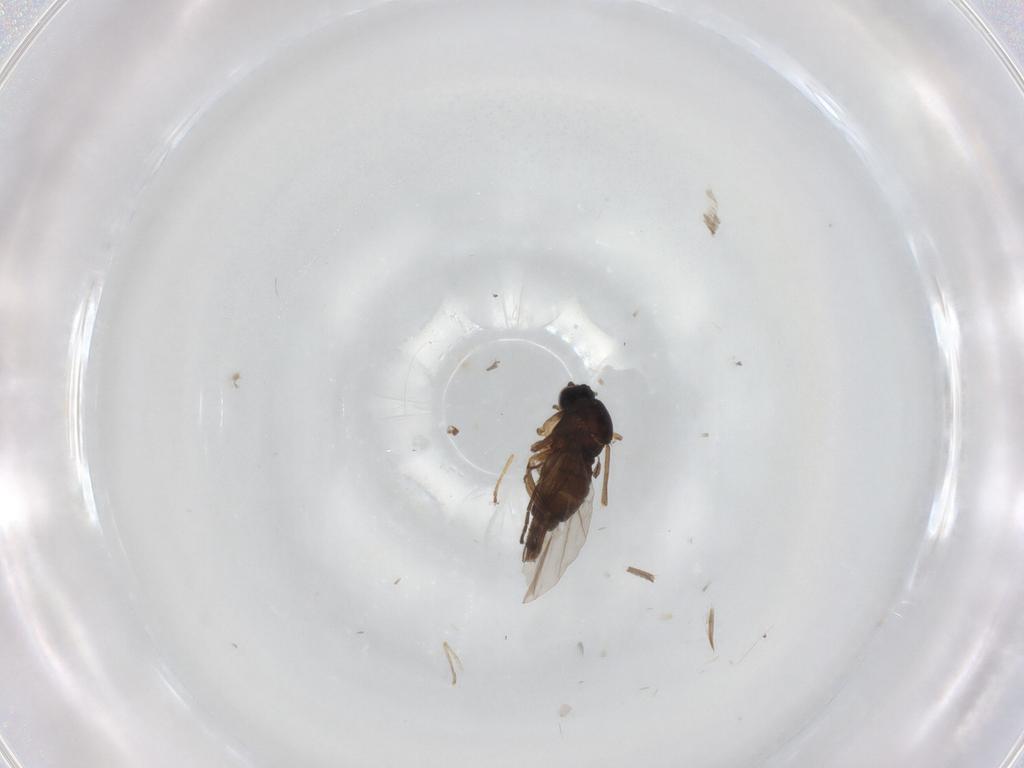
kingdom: Animalia
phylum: Arthropoda
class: Insecta
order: Diptera
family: Sciaridae
